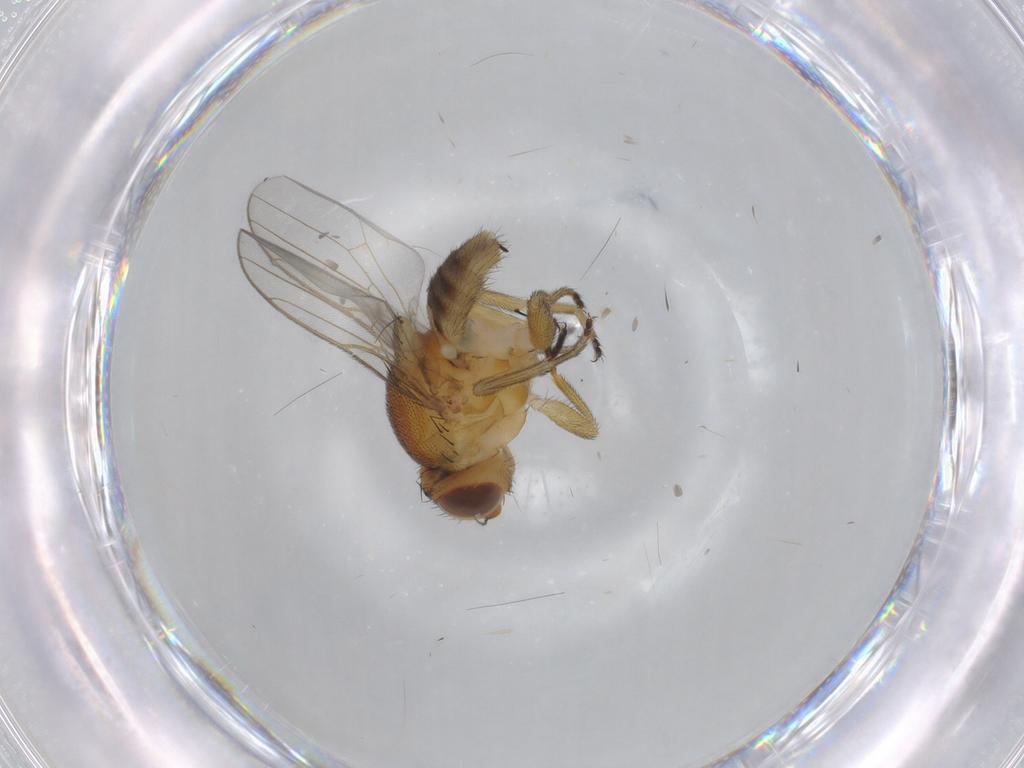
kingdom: Animalia
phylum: Arthropoda
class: Insecta
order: Diptera
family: Chloropidae
